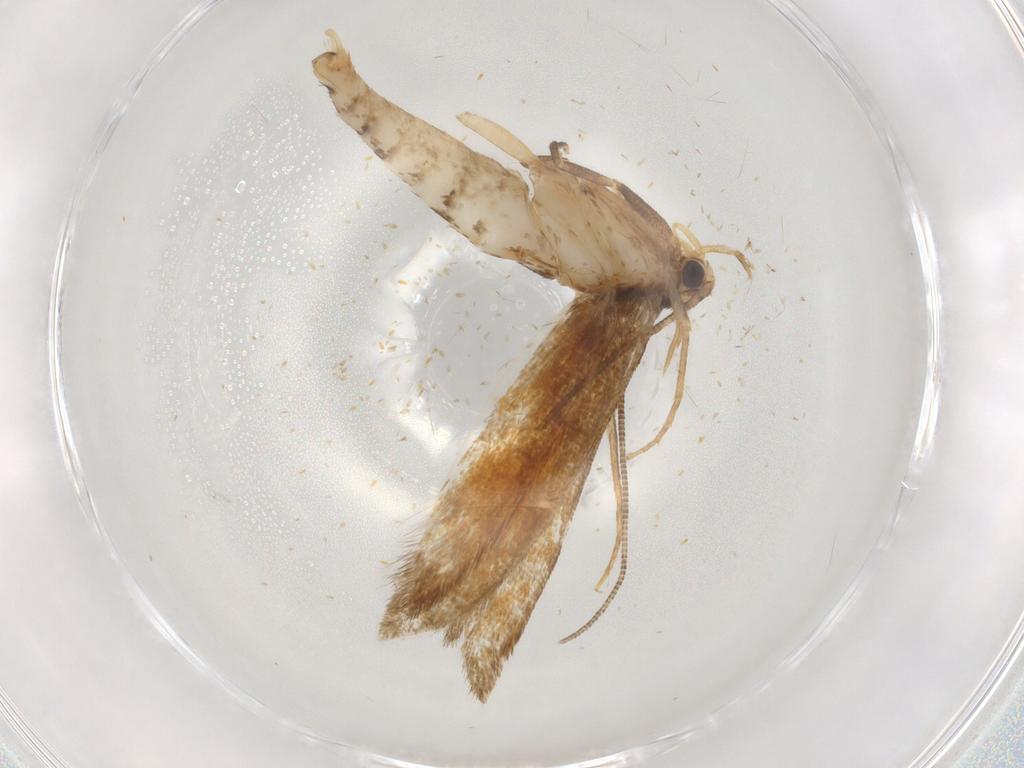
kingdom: Animalia
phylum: Arthropoda
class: Insecta
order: Lepidoptera
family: Tineidae
